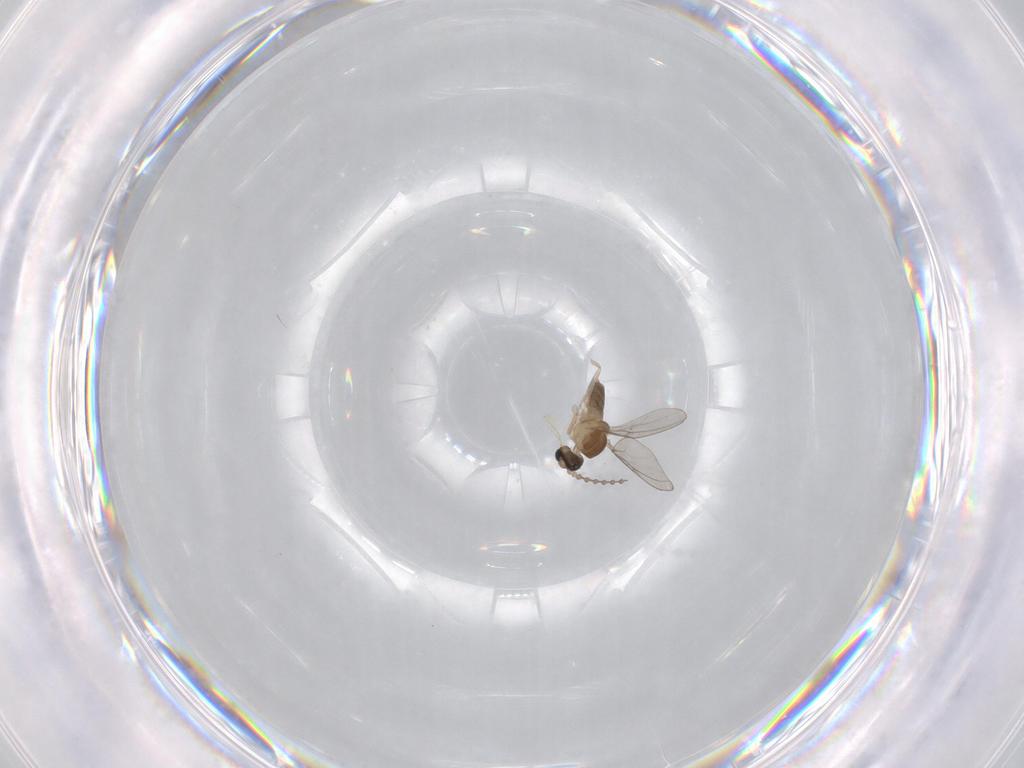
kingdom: Animalia
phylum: Arthropoda
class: Insecta
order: Diptera
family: Cecidomyiidae
